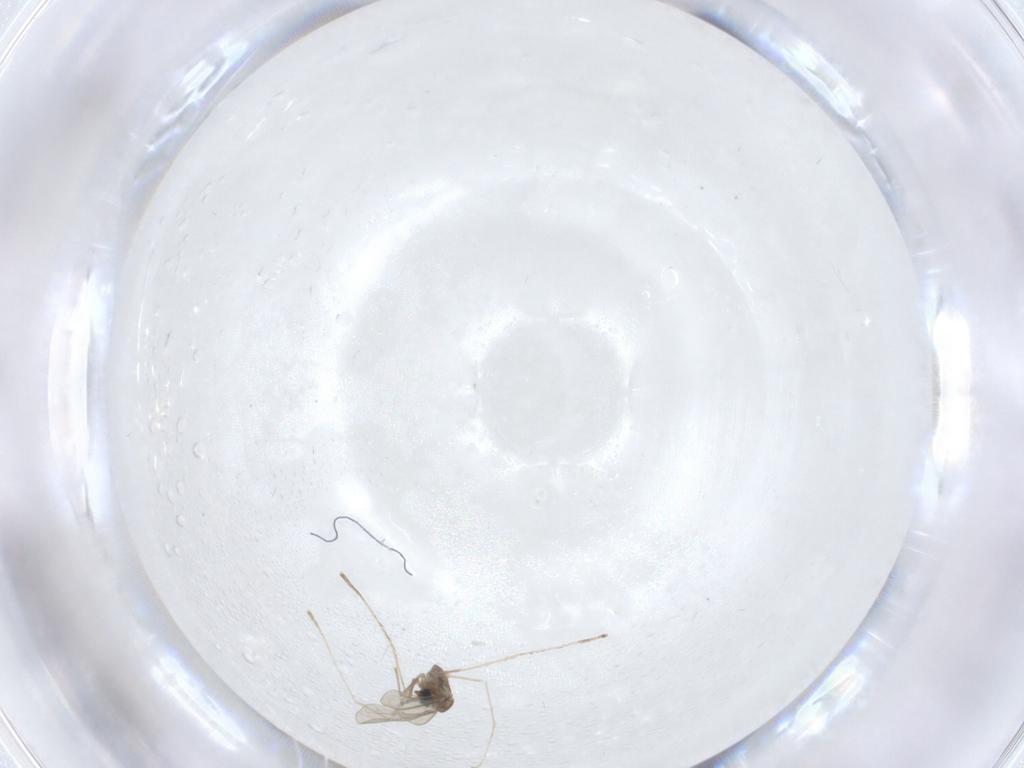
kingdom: Animalia
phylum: Arthropoda
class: Insecta
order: Diptera
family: Cecidomyiidae
